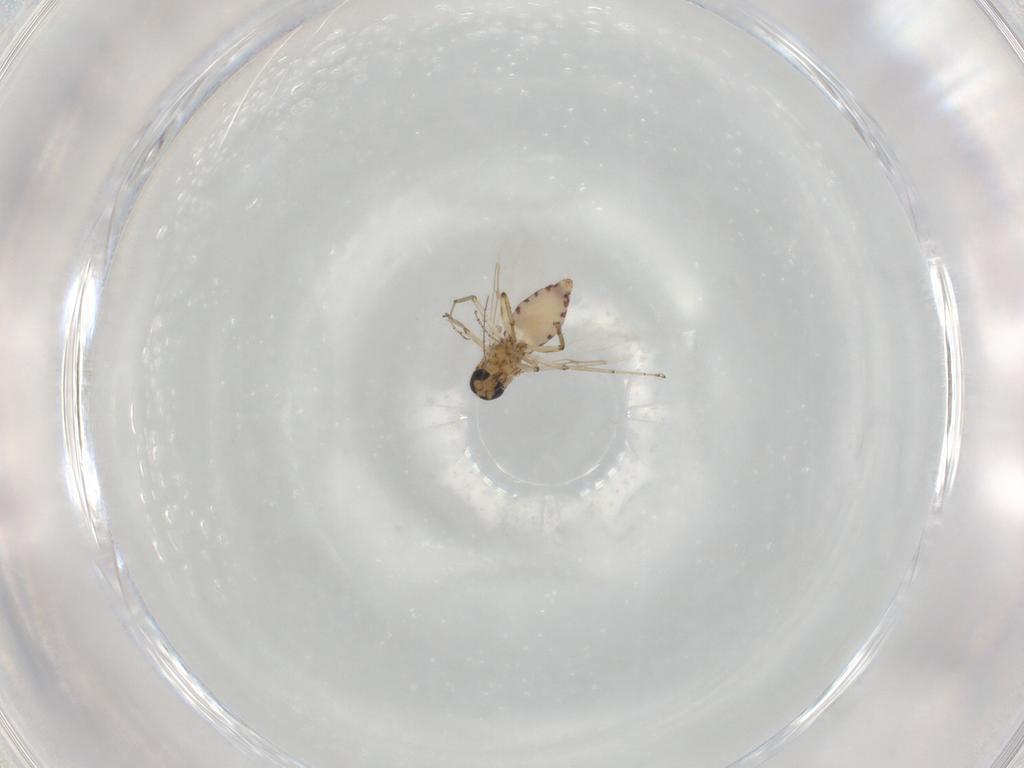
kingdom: Animalia
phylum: Arthropoda
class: Insecta
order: Diptera
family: Ceratopogonidae
